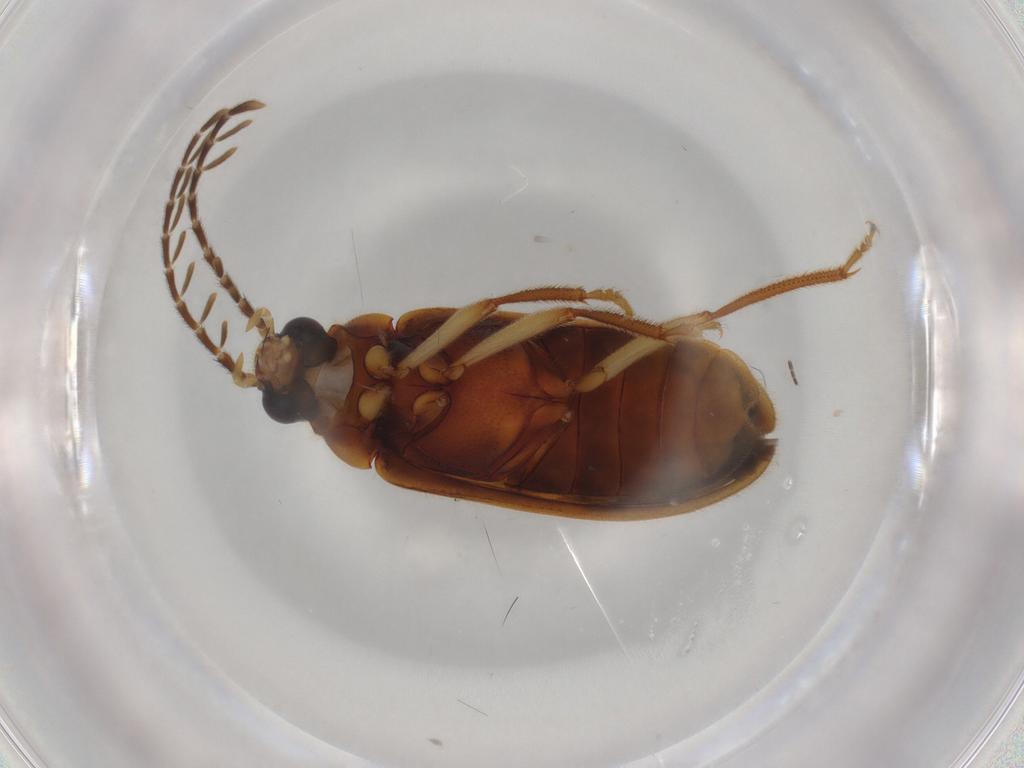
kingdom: Animalia
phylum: Arthropoda
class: Insecta
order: Coleoptera
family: Ptilodactylidae
